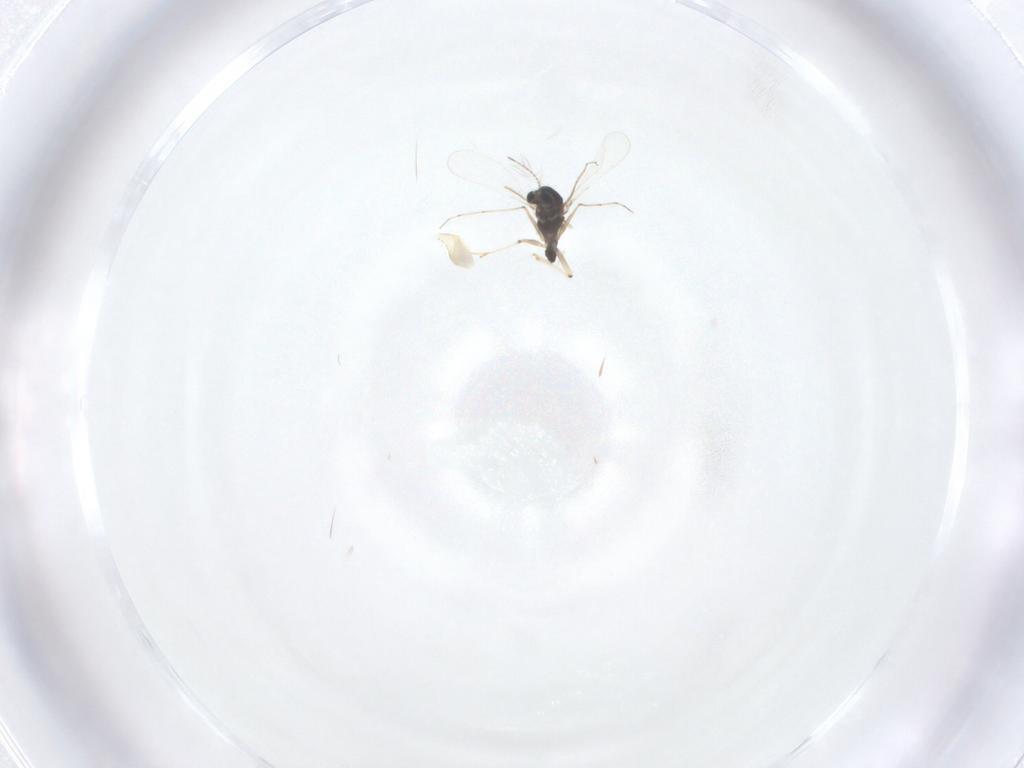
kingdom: Animalia
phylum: Arthropoda
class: Insecta
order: Diptera
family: Chironomidae
